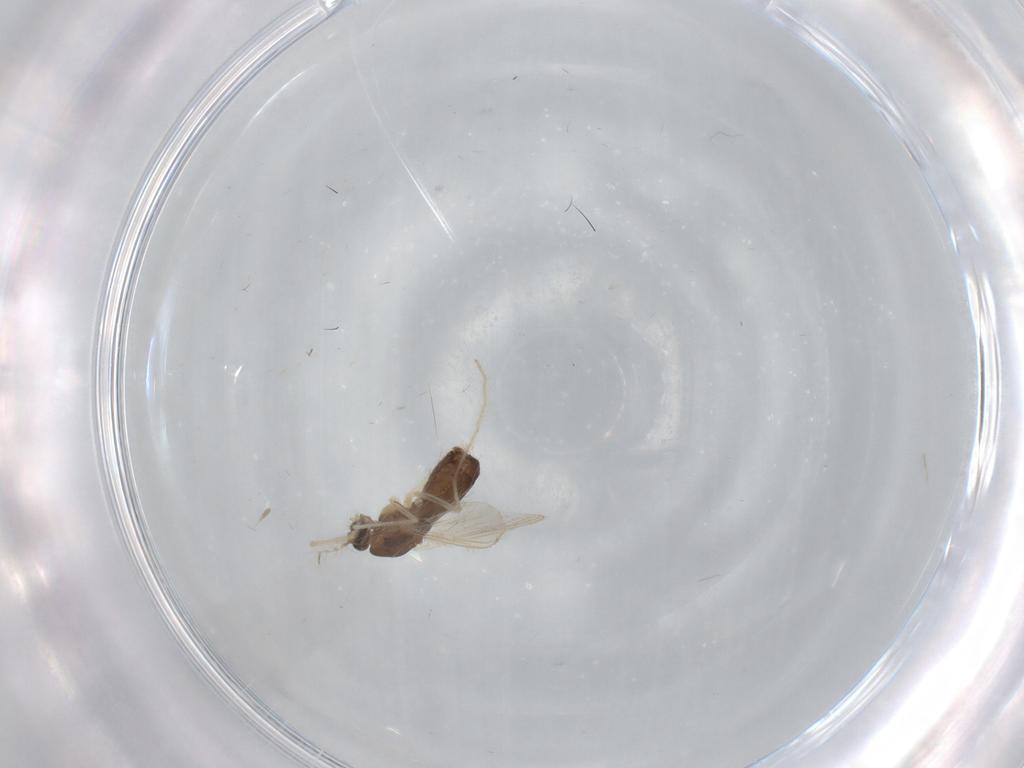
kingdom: Animalia
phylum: Arthropoda
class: Insecta
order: Diptera
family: Chironomidae
